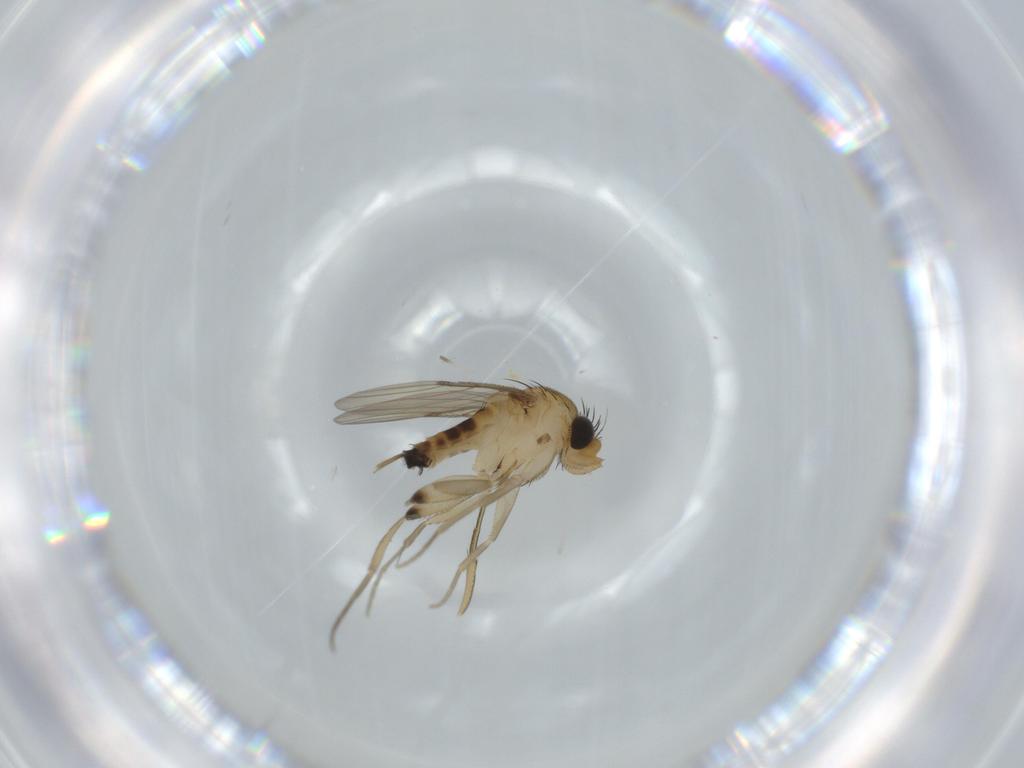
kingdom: Animalia
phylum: Arthropoda
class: Insecta
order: Diptera
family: Phoridae
